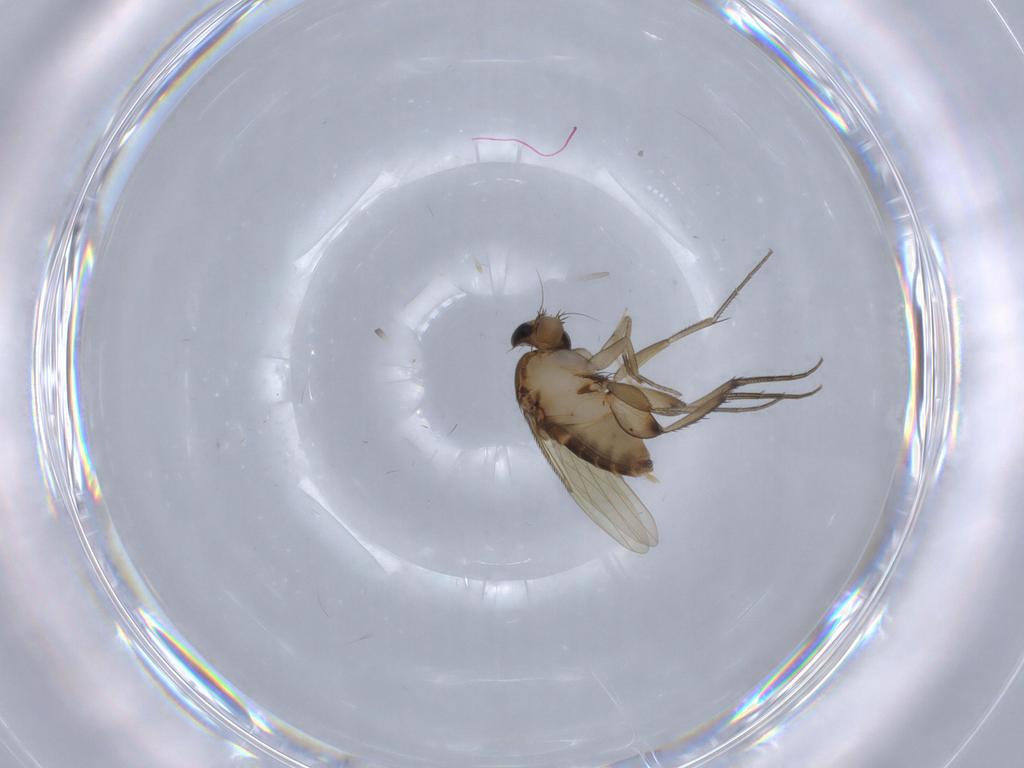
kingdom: Animalia
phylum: Arthropoda
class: Insecta
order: Diptera
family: Phoridae
